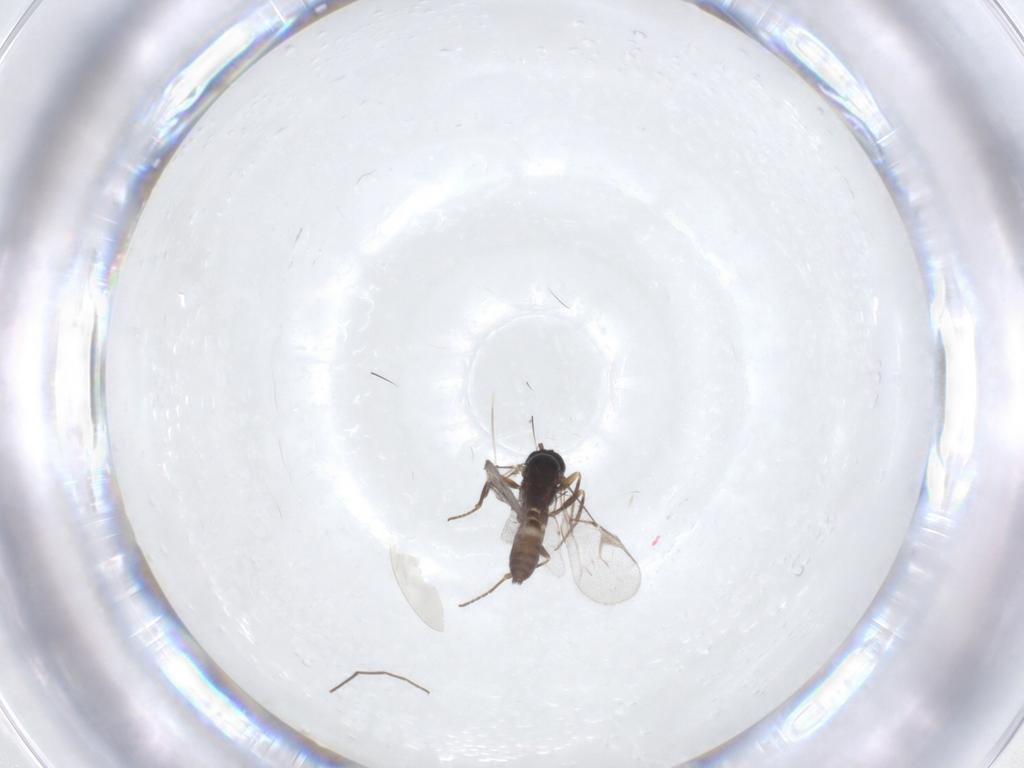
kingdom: Animalia
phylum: Arthropoda
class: Insecta
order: Hymenoptera
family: Braconidae
